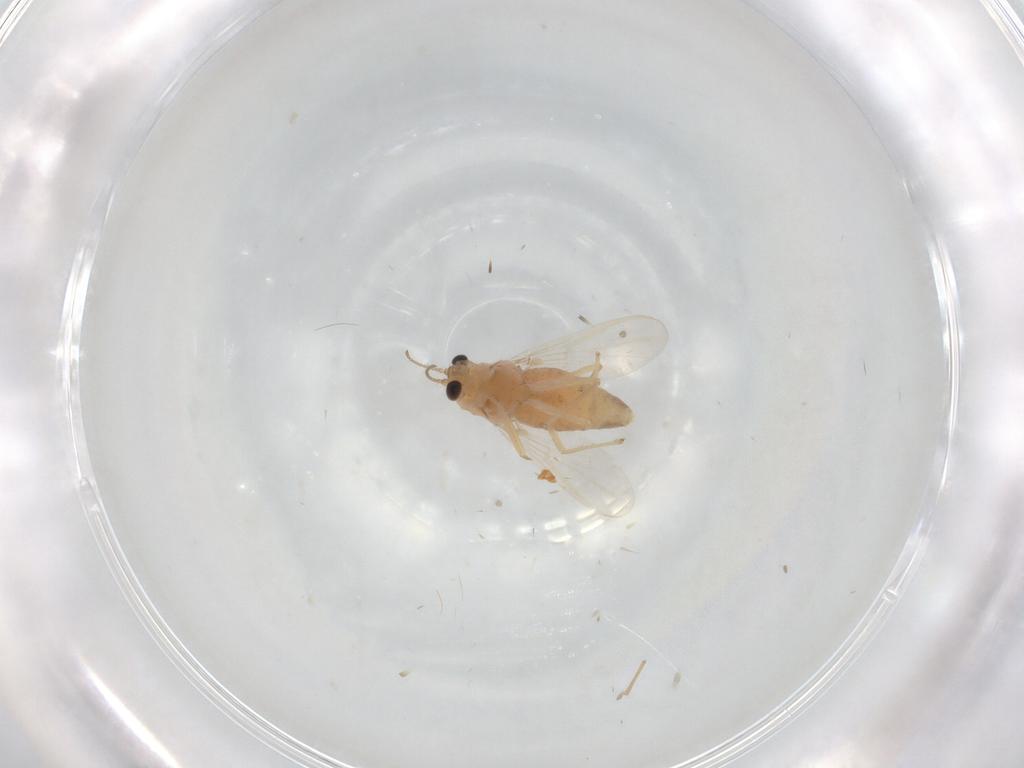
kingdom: Animalia
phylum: Arthropoda
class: Insecta
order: Diptera
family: Chironomidae
